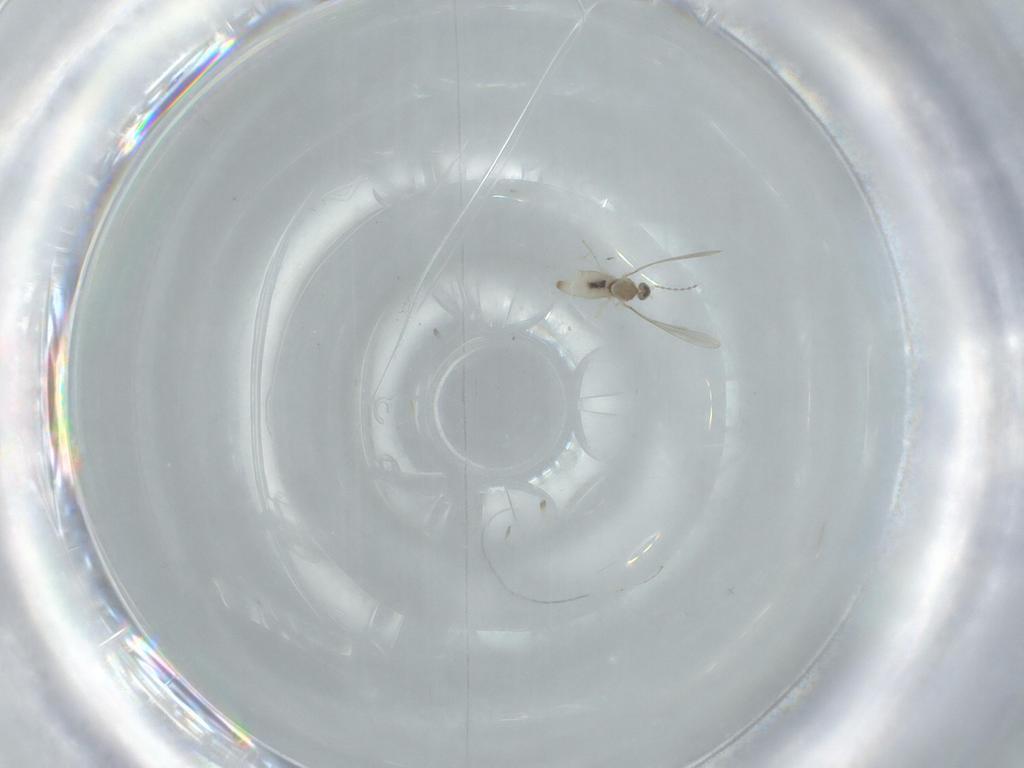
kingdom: Animalia
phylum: Arthropoda
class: Insecta
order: Diptera
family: Cecidomyiidae
